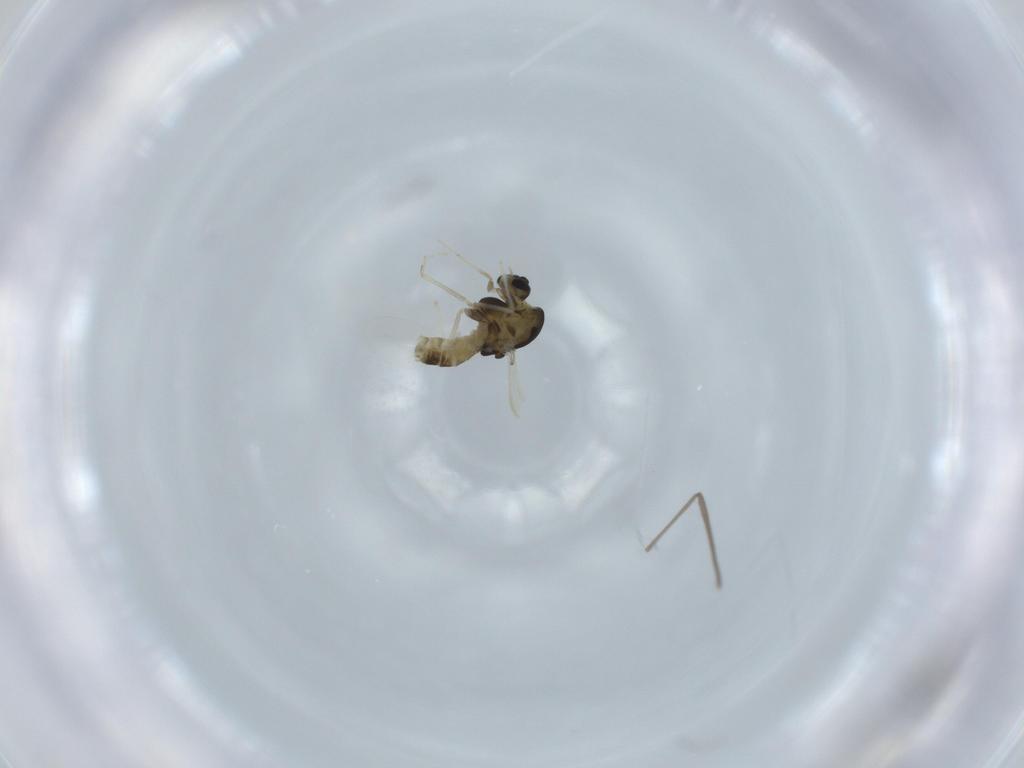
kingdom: Animalia
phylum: Arthropoda
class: Insecta
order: Diptera
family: Chironomidae
